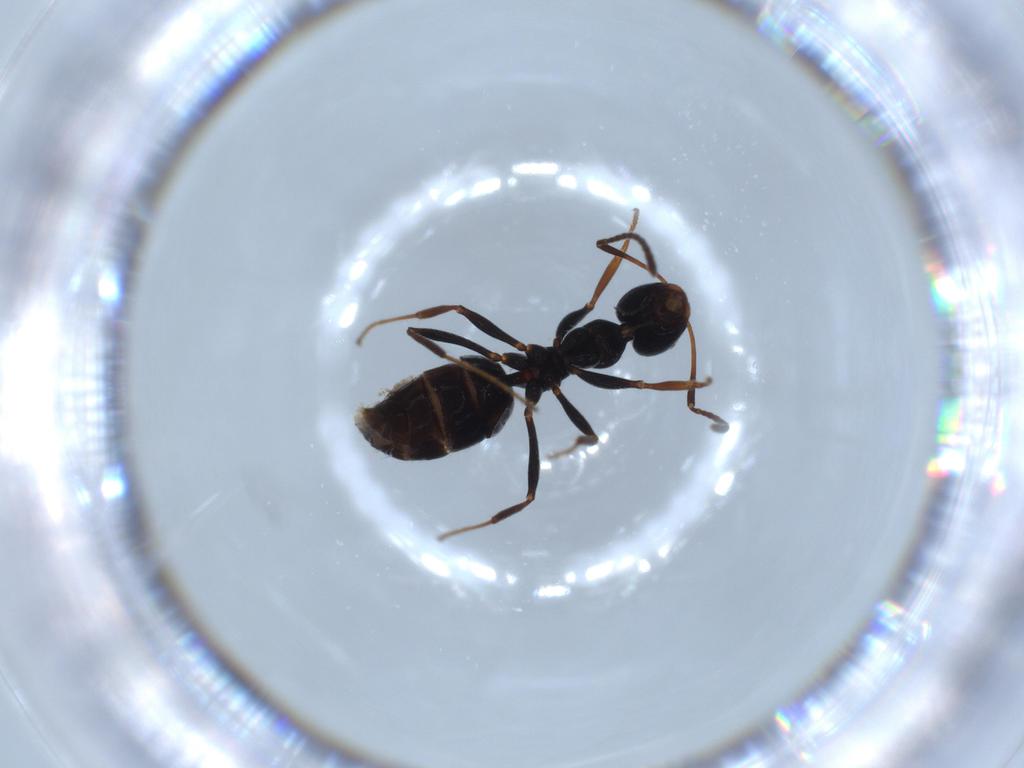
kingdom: Animalia
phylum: Arthropoda
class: Insecta
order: Hymenoptera
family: Formicidae
